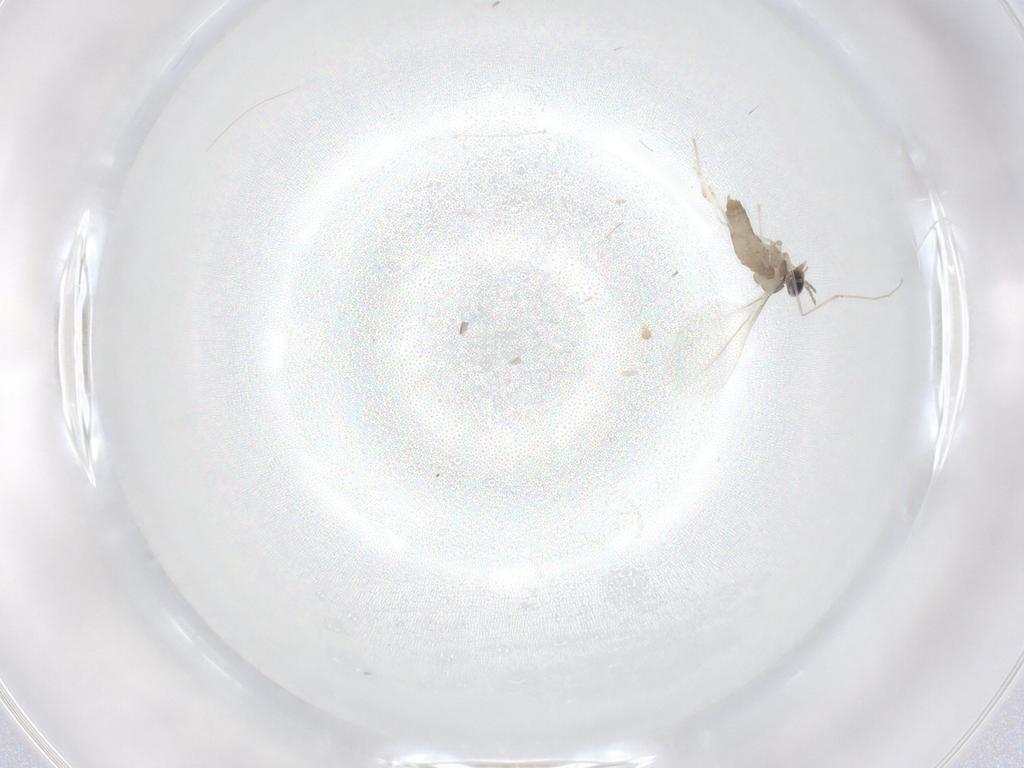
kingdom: Animalia
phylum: Arthropoda
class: Insecta
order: Diptera
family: Cecidomyiidae
